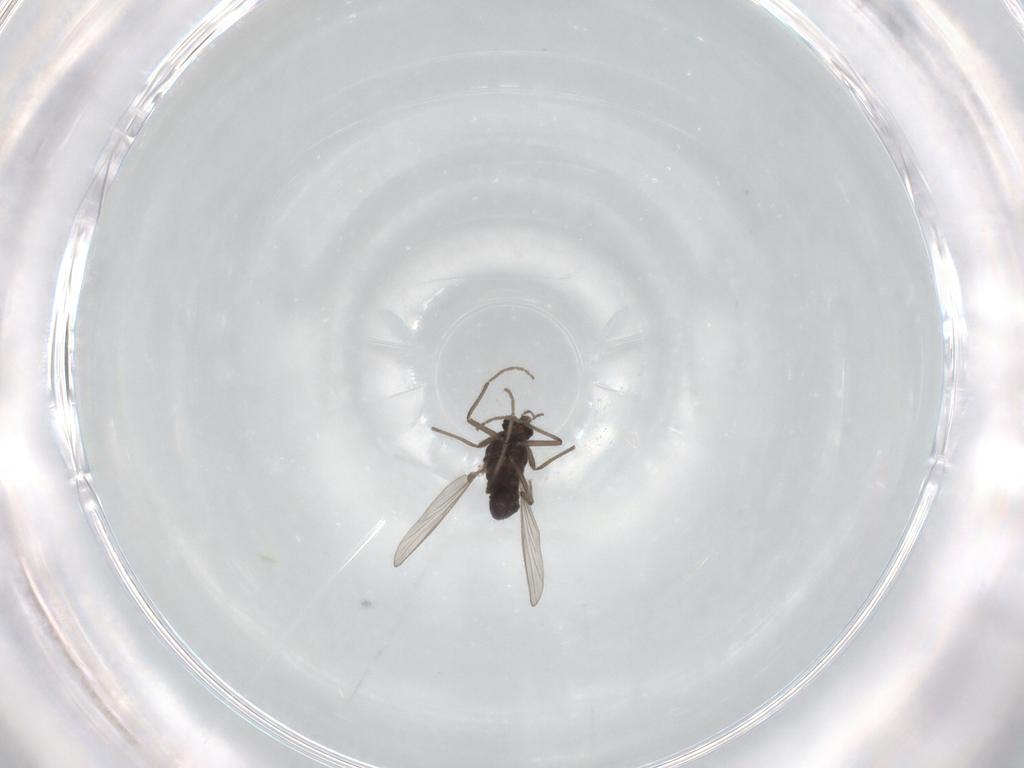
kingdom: Animalia
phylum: Arthropoda
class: Insecta
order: Diptera
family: Chironomidae
